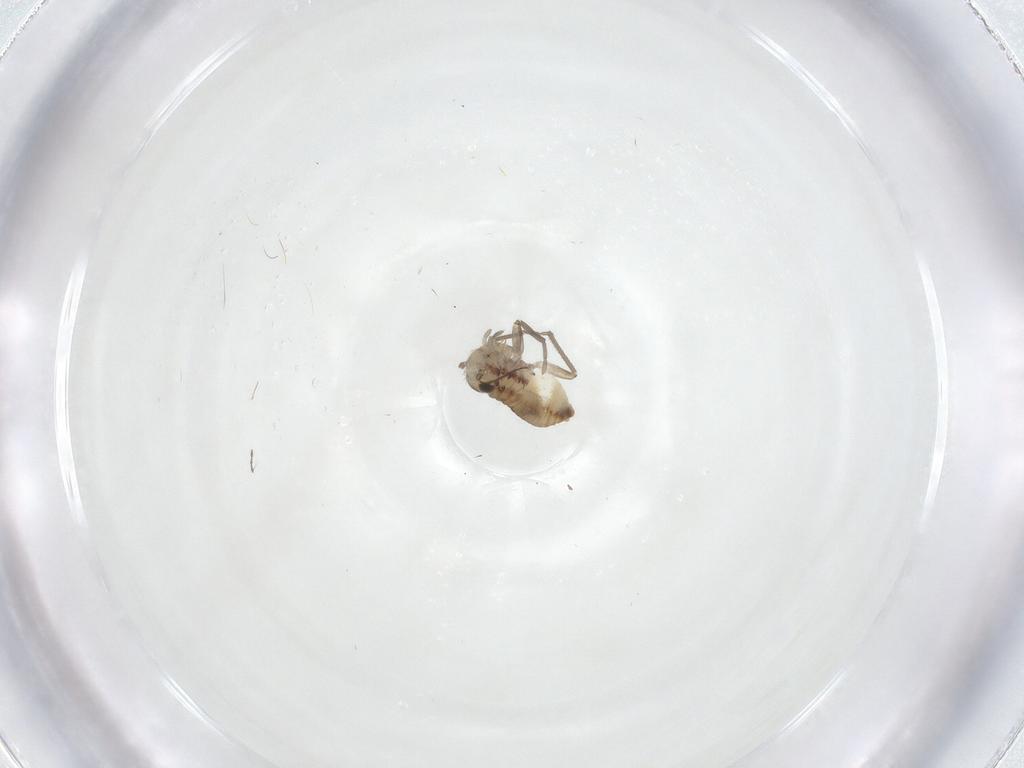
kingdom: Animalia
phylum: Arthropoda
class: Insecta
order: Psocodea
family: Mesopsocidae
